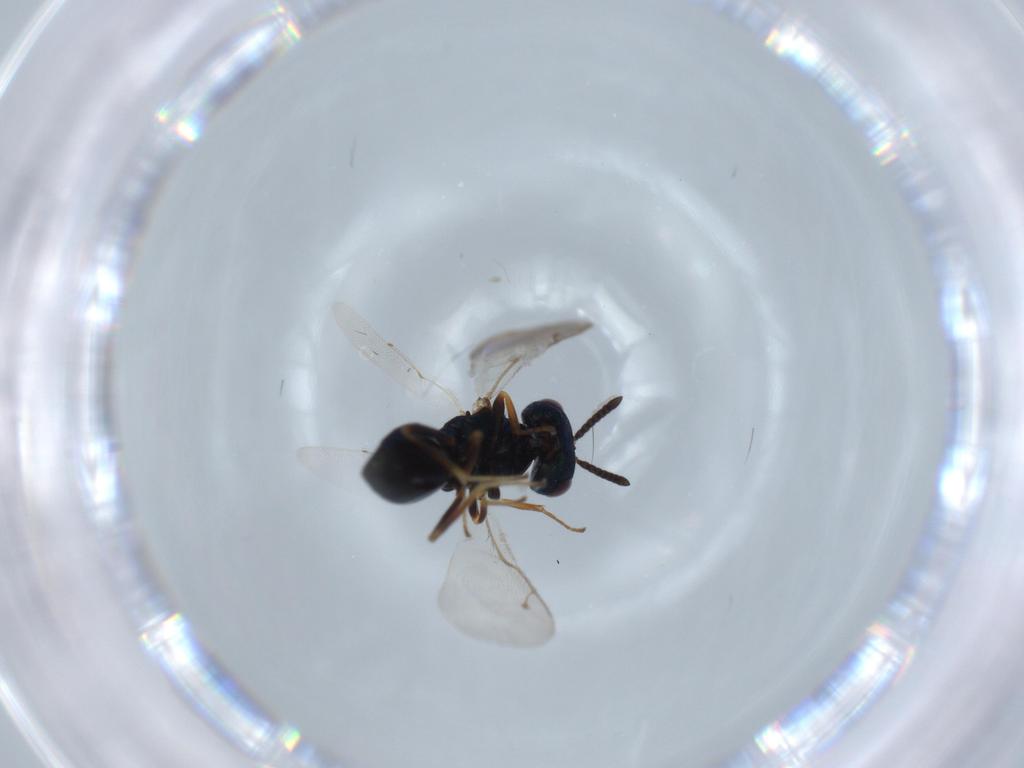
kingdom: Animalia
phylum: Arthropoda
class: Insecta
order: Hymenoptera
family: Pteromalidae
